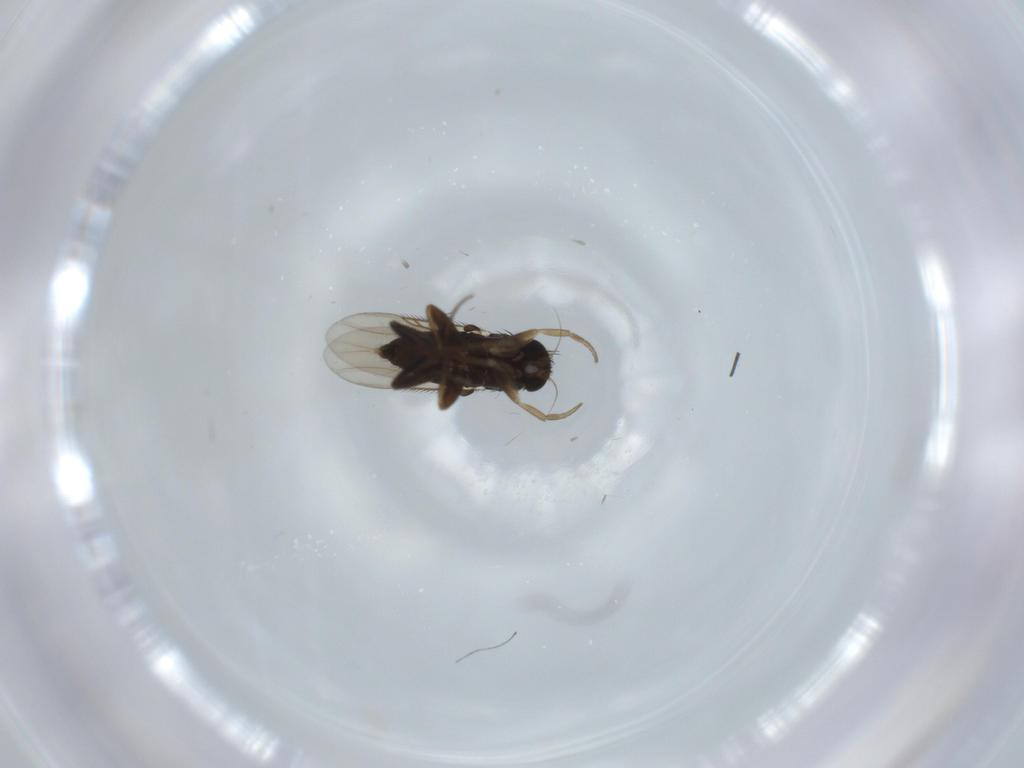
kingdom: Animalia
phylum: Arthropoda
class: Insecta
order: Diptera
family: Phoridae
